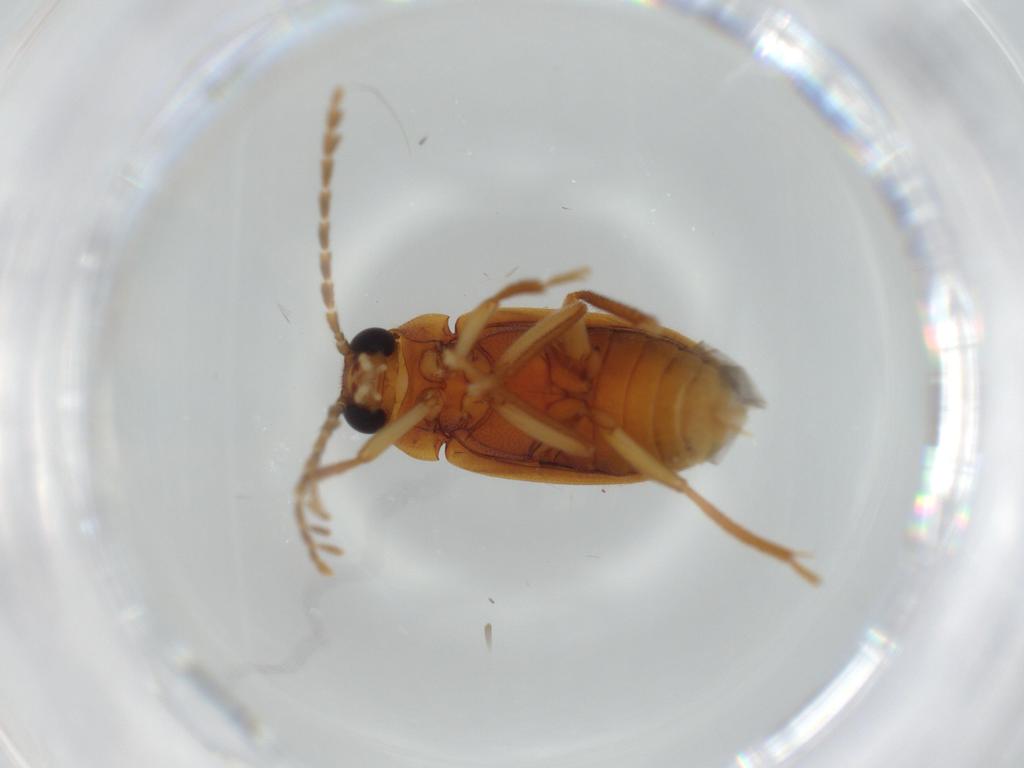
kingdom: Animalia
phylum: Arthropoda
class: Insecta
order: Coleoptera
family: Ptilodactylidae
